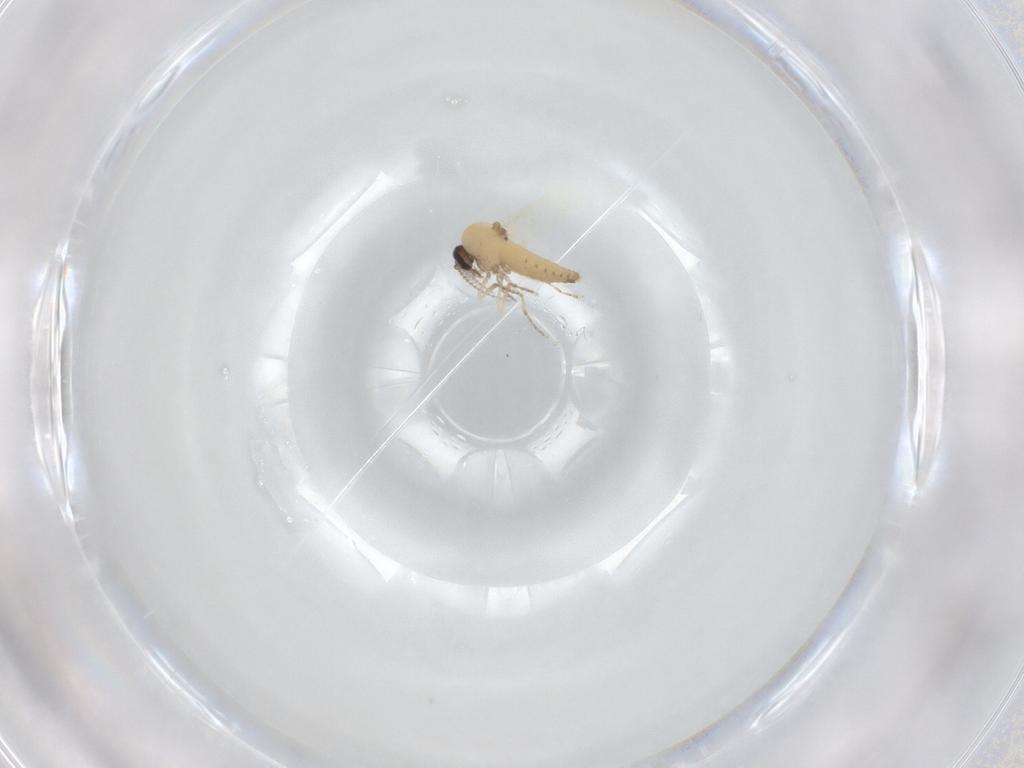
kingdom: Animalia
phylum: Arthropoda
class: Insecta
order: Diptera
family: Ceratopogonidae
